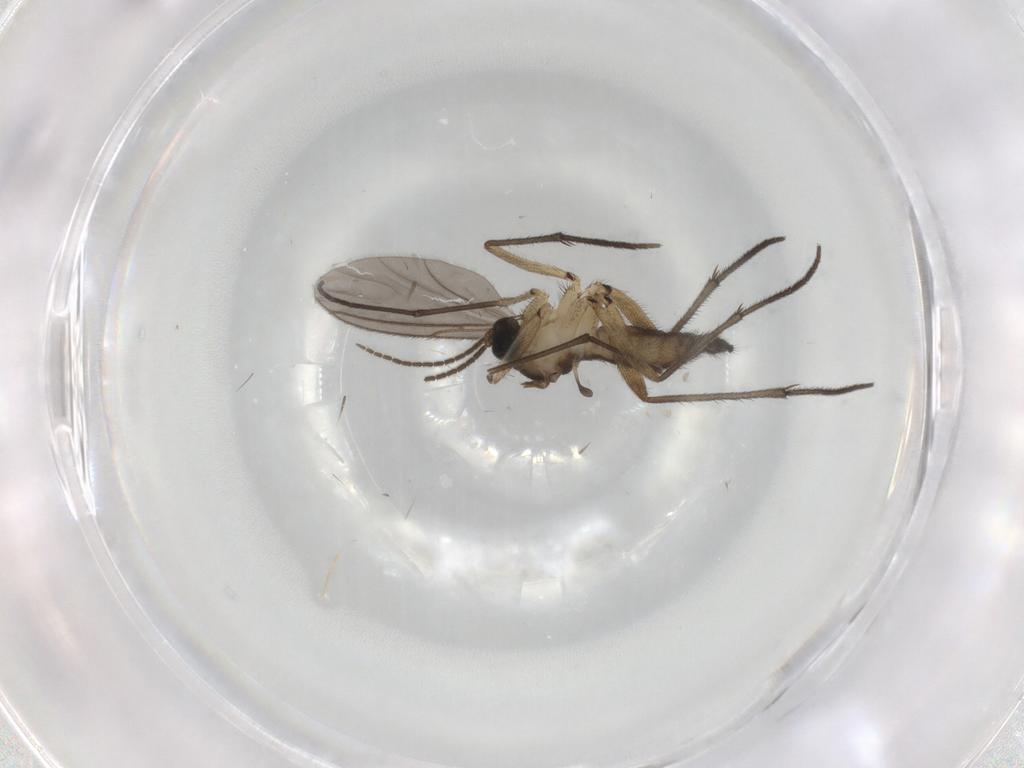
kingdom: Animalia
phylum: Arthropoda
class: Insecta
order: Diptera
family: Sciaridae
